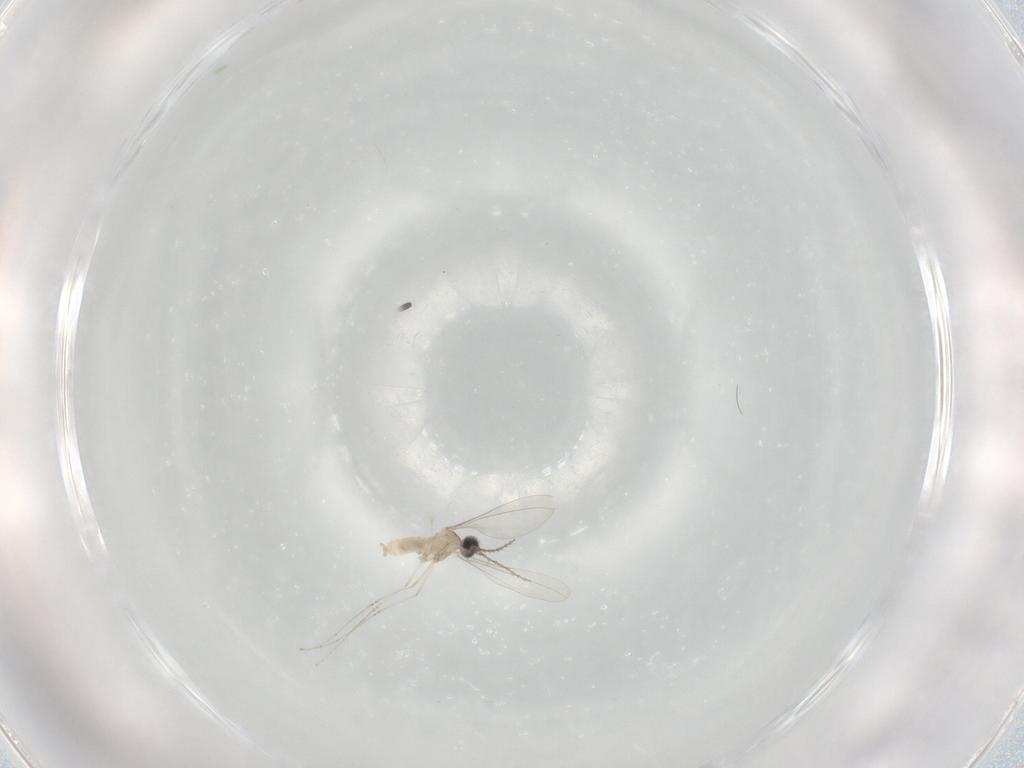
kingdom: Animalia
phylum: Arthropoda
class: Insecta
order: Diptera
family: Cecidomyiidae
